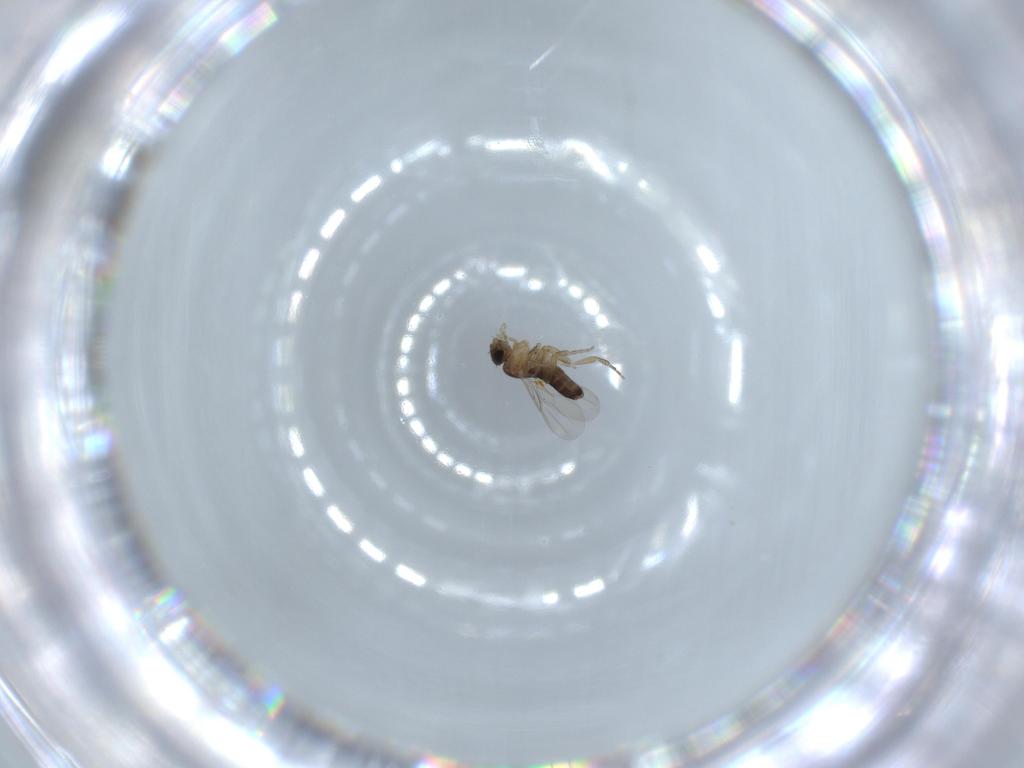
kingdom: Animalia
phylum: Arthropoda
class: Insecta
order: Diptera
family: Phoridae
